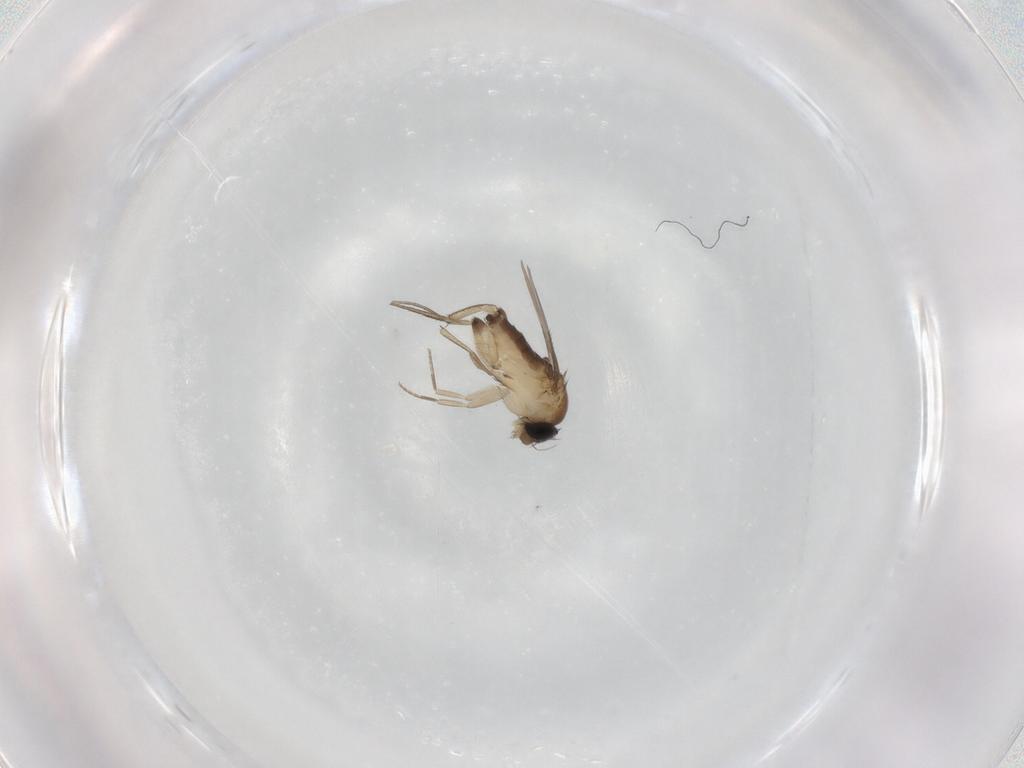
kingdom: Animalia
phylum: Arthropoda
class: Insecta
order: Diptera
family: Phoridae
